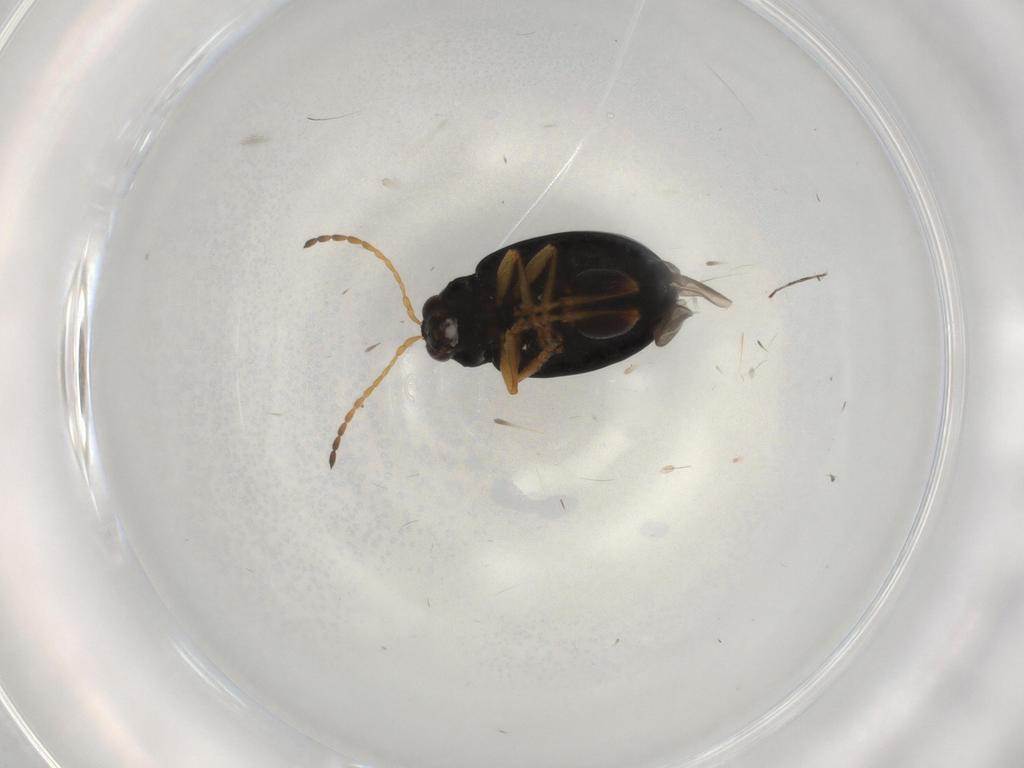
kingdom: Animalia
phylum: Arthropoda
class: Insecta
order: Coleoptera
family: Chrysomelidae
